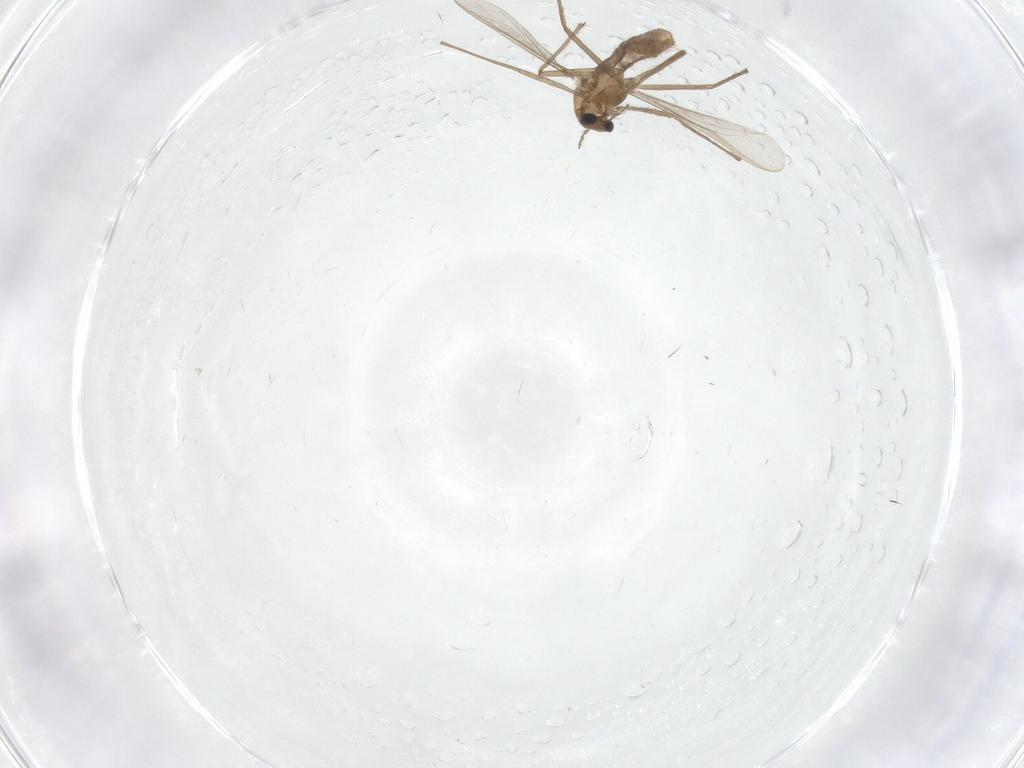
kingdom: Animalia
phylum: Arthropoda
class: Insecta
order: Diptera
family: Chironomidae
